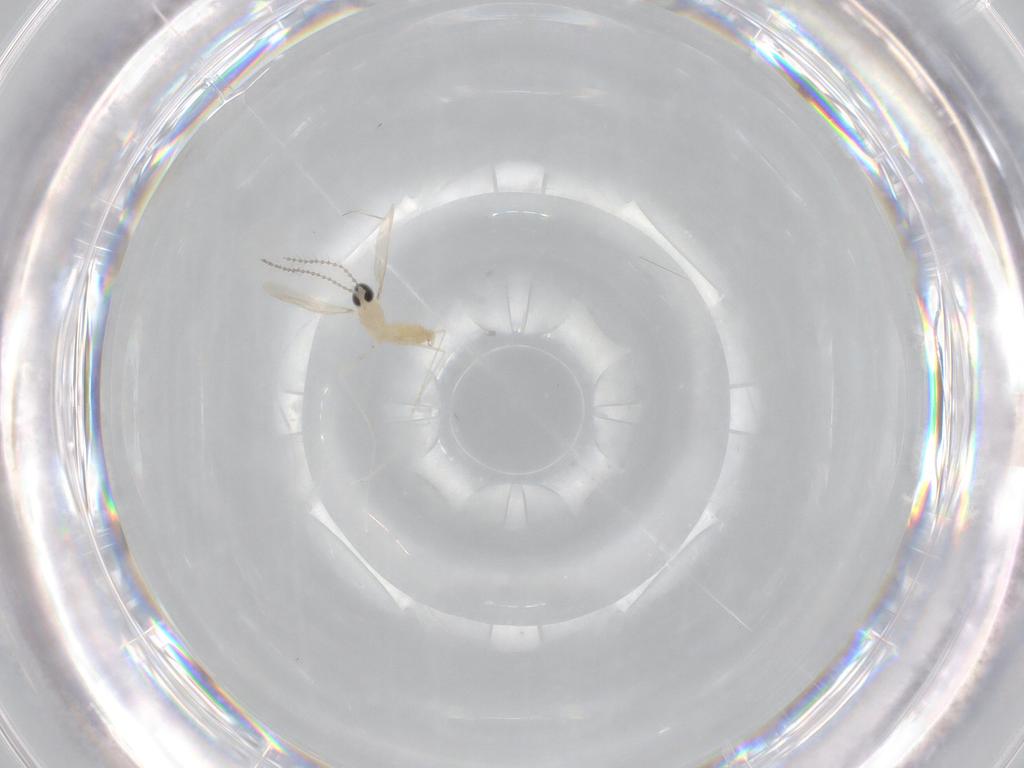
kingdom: Animalia
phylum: Arthropoda
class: Insecta
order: Diptera
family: Cecidomyiidae
